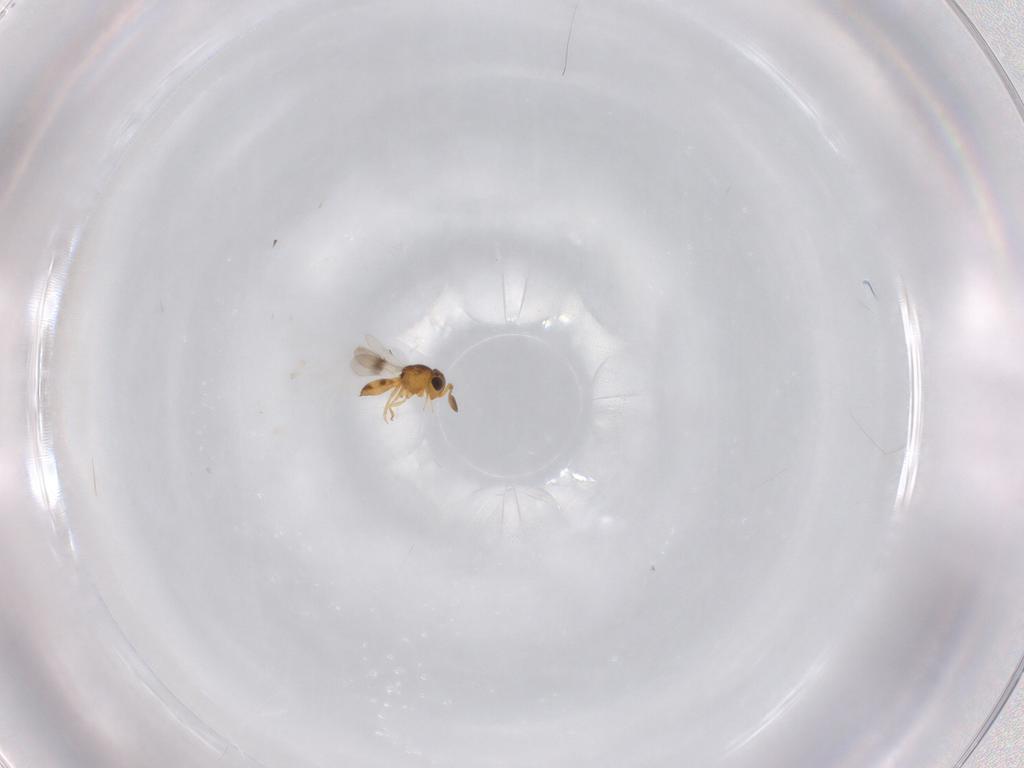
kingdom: Animalia
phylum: Arthropoda
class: Insecta
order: Hymenoptera
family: Scelionidae
